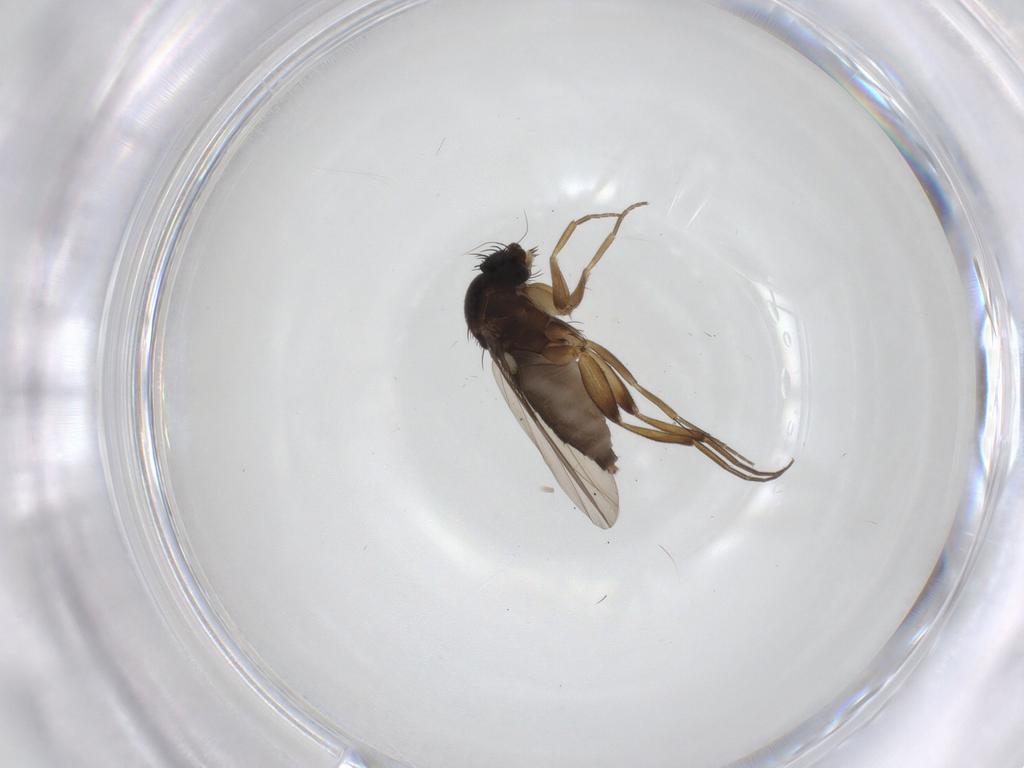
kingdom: Animalia
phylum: Arthropoda
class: Insecta
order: Diptera
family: Phoridae
